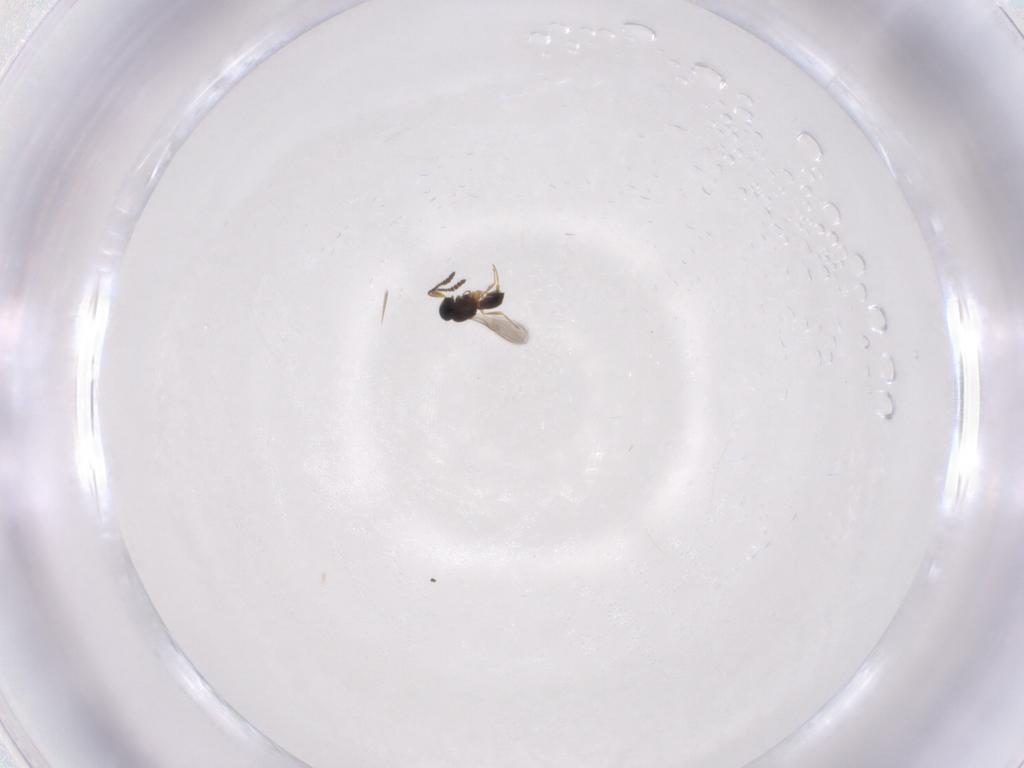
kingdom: Animalia
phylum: Arthropoda
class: Insecta
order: Hymenoptera
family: Scelionidae
